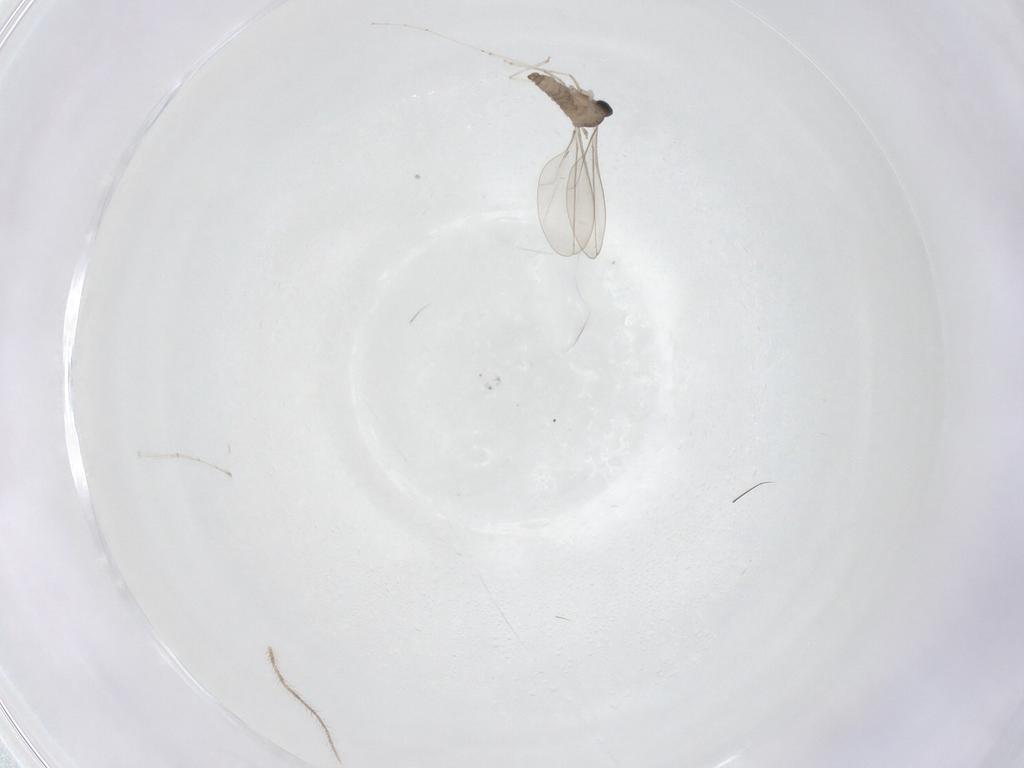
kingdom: Animalia
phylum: Arthropoda
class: Insecta
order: Diptera
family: Cecidomyiidae
